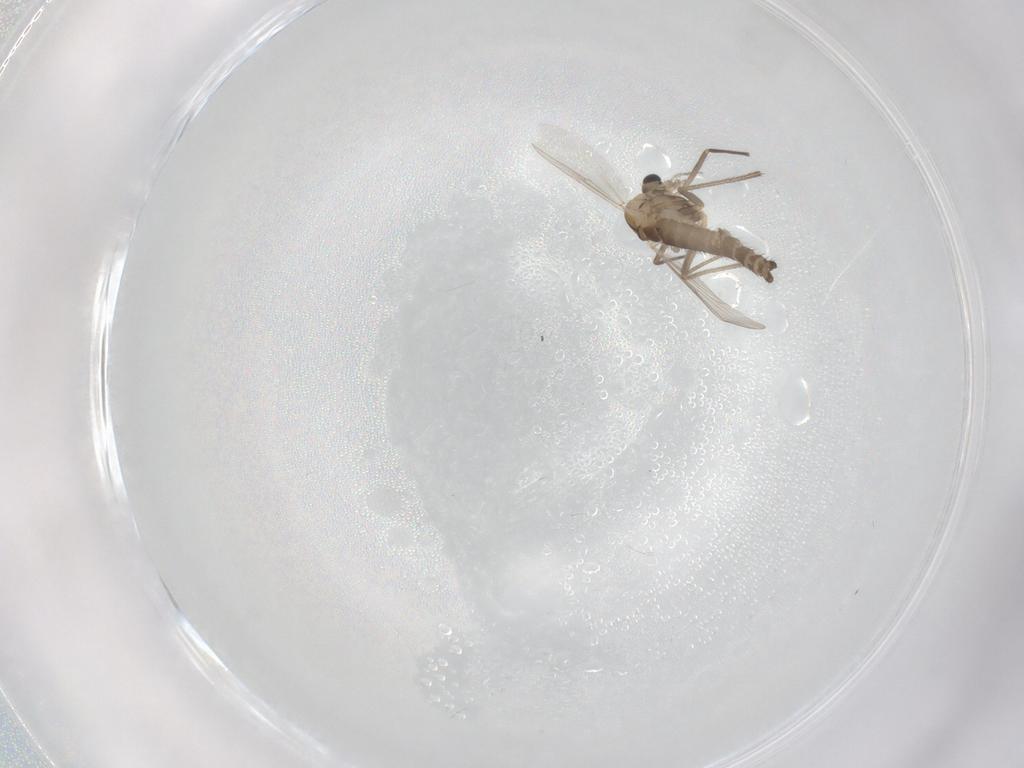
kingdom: Animalia
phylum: Arthropoda
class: Insecta
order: Diptera
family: Chironomidae
